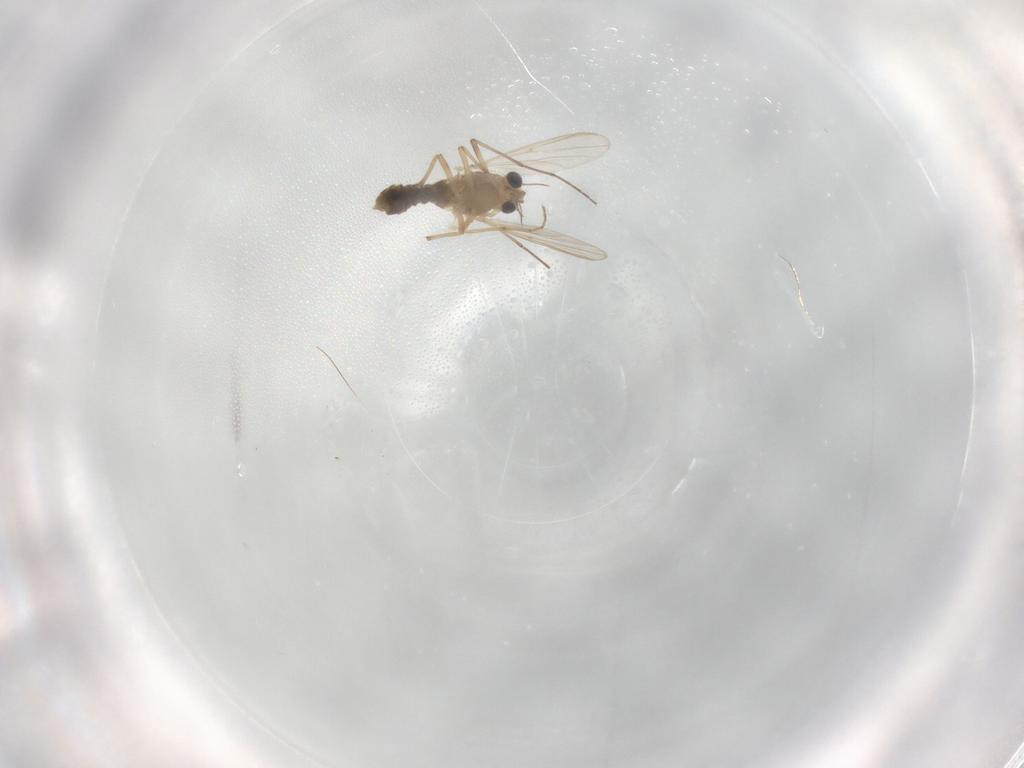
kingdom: Animalia
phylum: Arthropoda
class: Insecta
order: Diptera
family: Chironomidae
